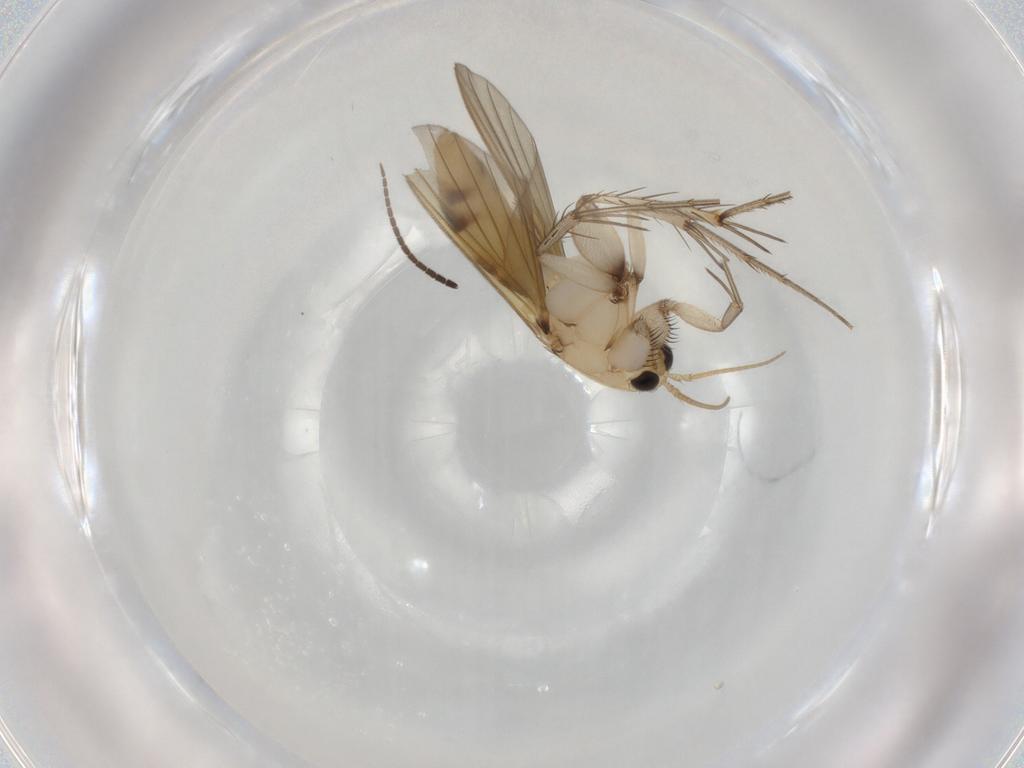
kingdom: Animalia
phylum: Arthropoda
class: Insecta
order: Diptera
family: Mycetophilidae
